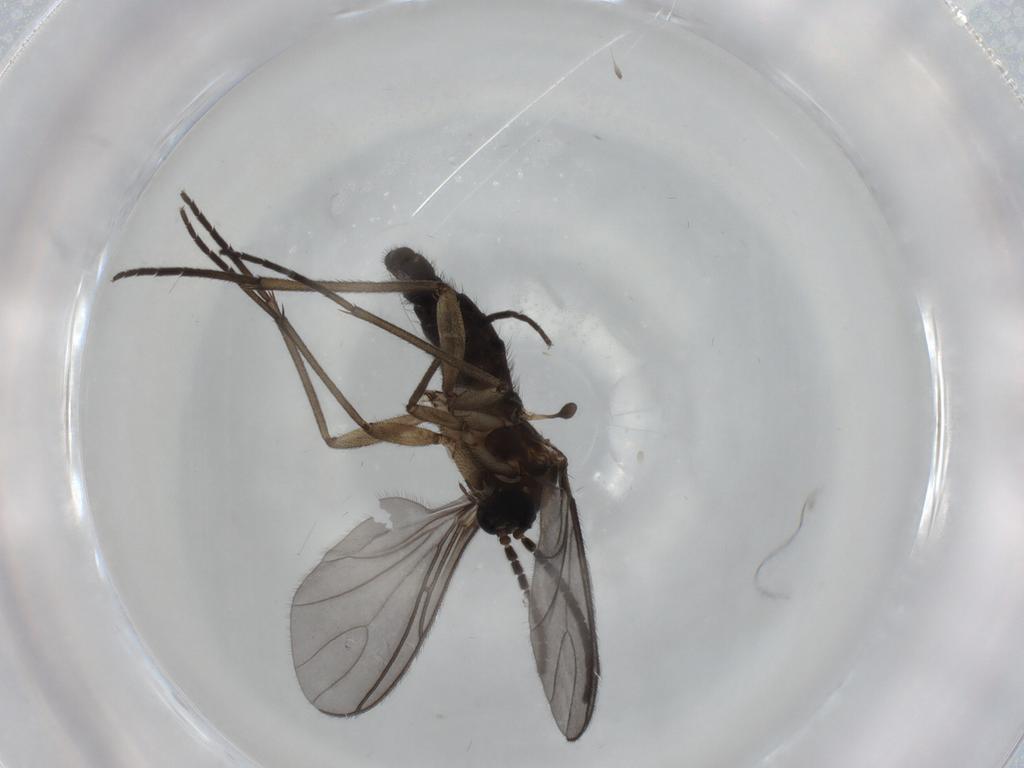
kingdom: Animalia
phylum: Arthropoda
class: Insecta
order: Diptera
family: Sciaridae
